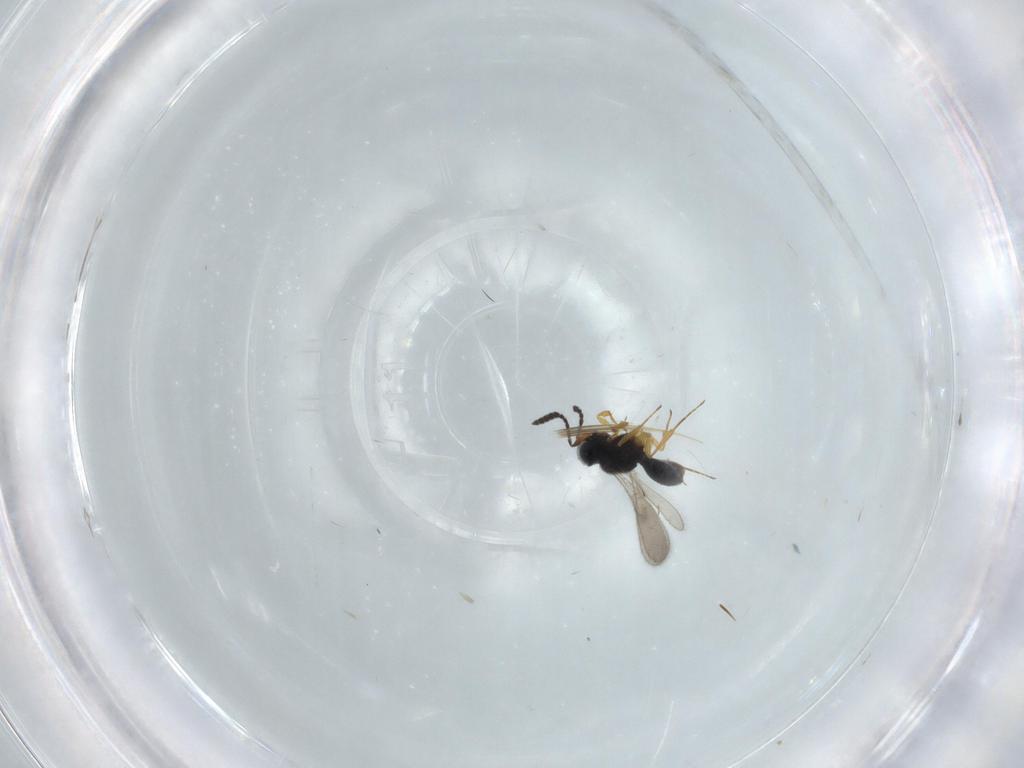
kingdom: Animalia
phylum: Arthropoda
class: Insecta
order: Hymenoptera
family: Scelionidae
